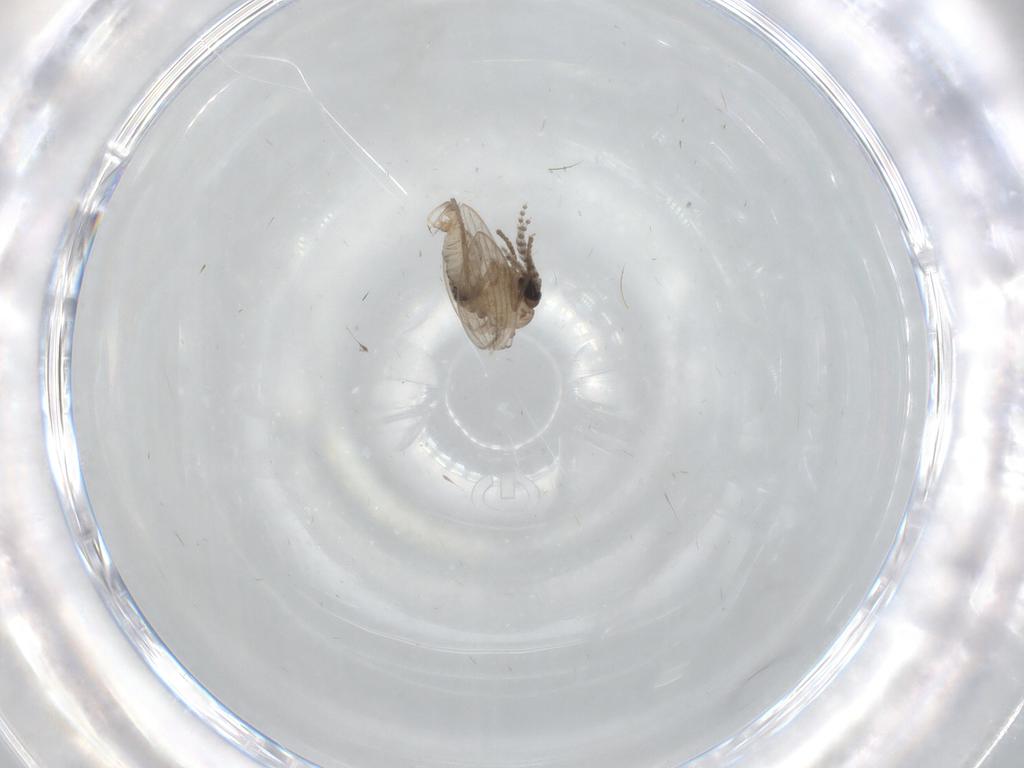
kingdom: Animalia
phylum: Arthropoda
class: Insecta
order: Diptera
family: Psychodidae
